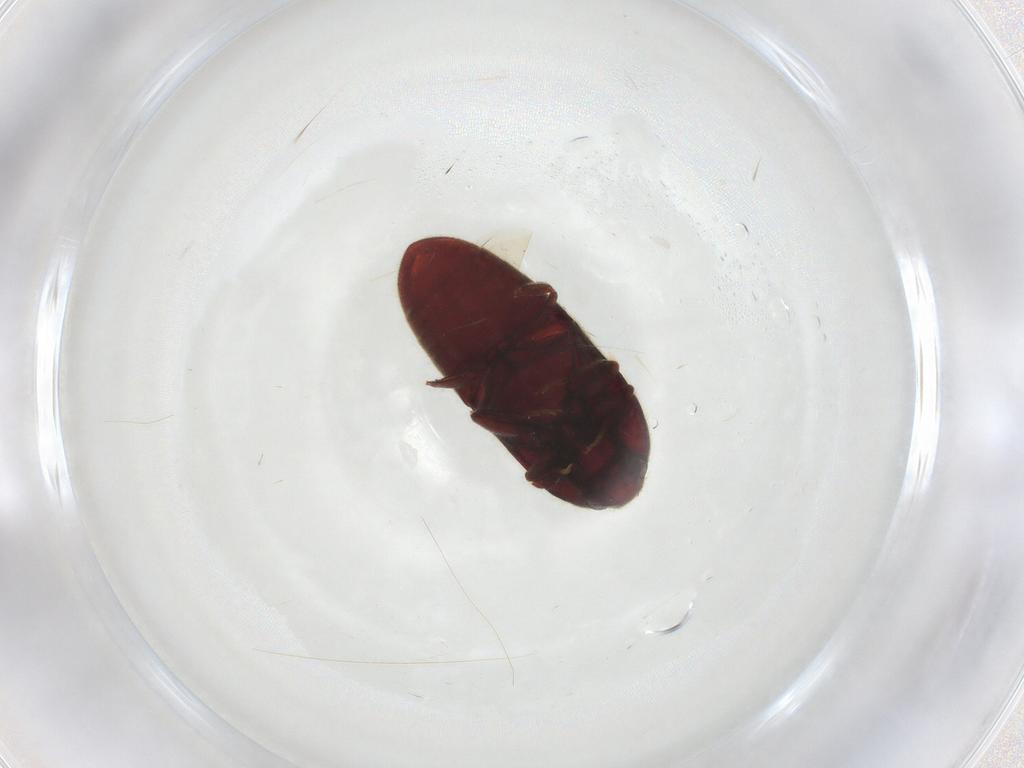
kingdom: Animalia
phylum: Arthropoda
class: Insecta
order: Coleoptera
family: Throscidae
